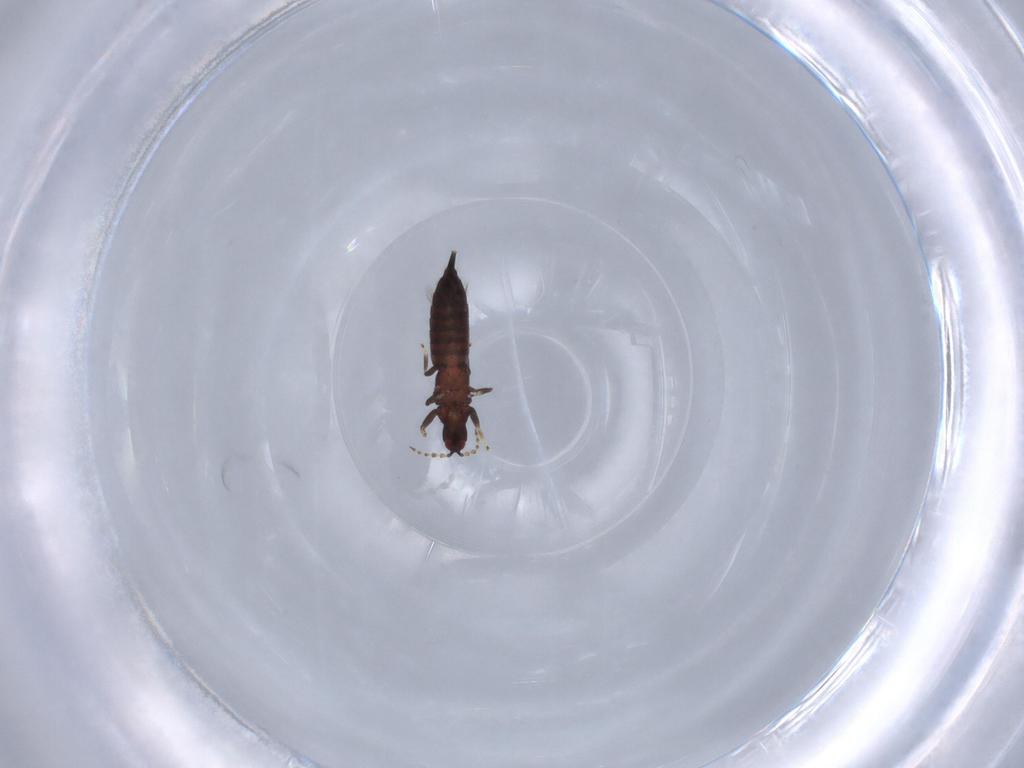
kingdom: Animalia
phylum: Arthropoda
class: Insecta
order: Thysanoptera
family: Phlaeothripidae
